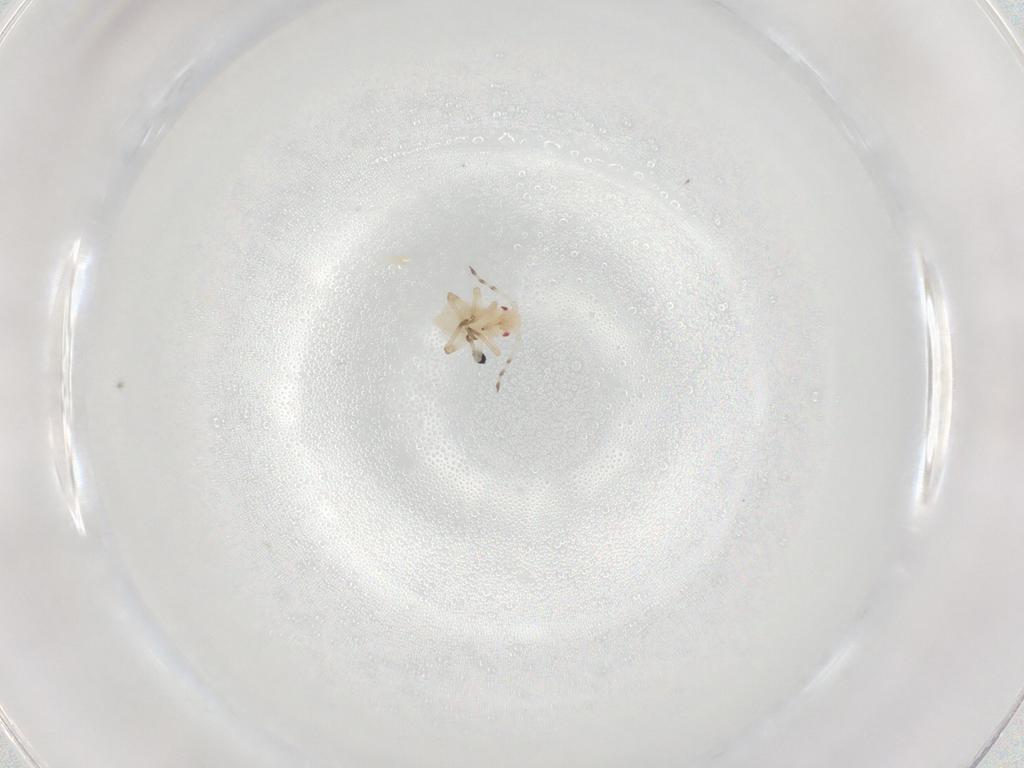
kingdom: Animalia
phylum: Arthropoda
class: Insecta
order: Hemiptera
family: Aphididae
